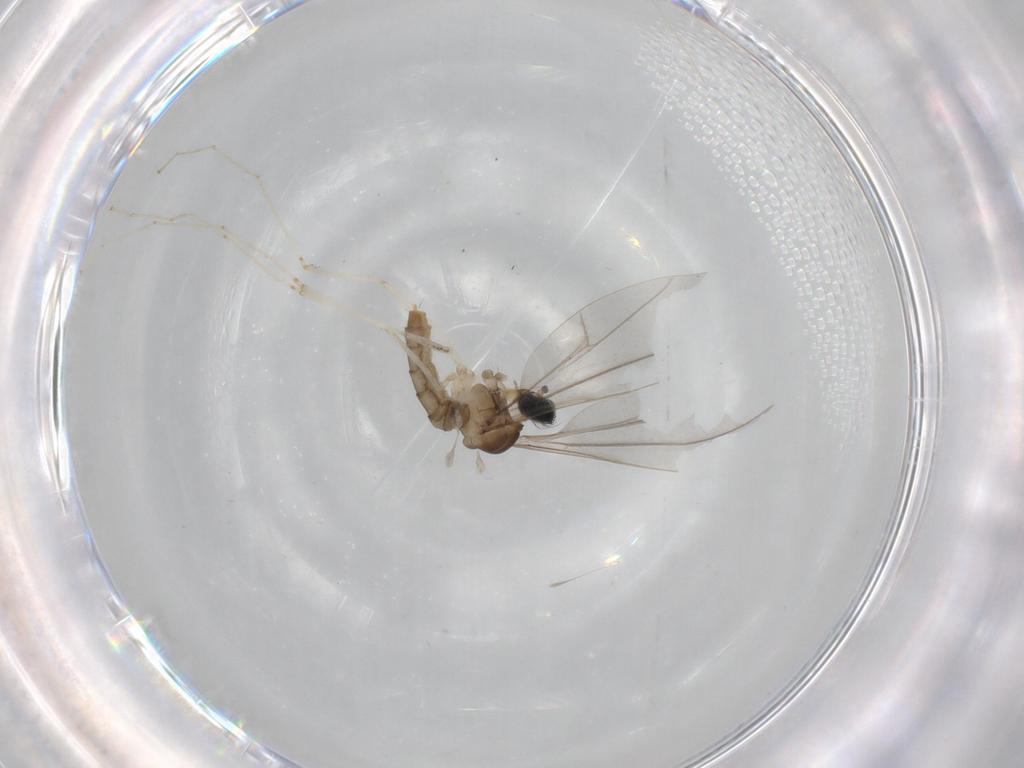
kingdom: Animalia
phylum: Arthropoda
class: Insecta
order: Diptera
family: Cecidomyiidae
